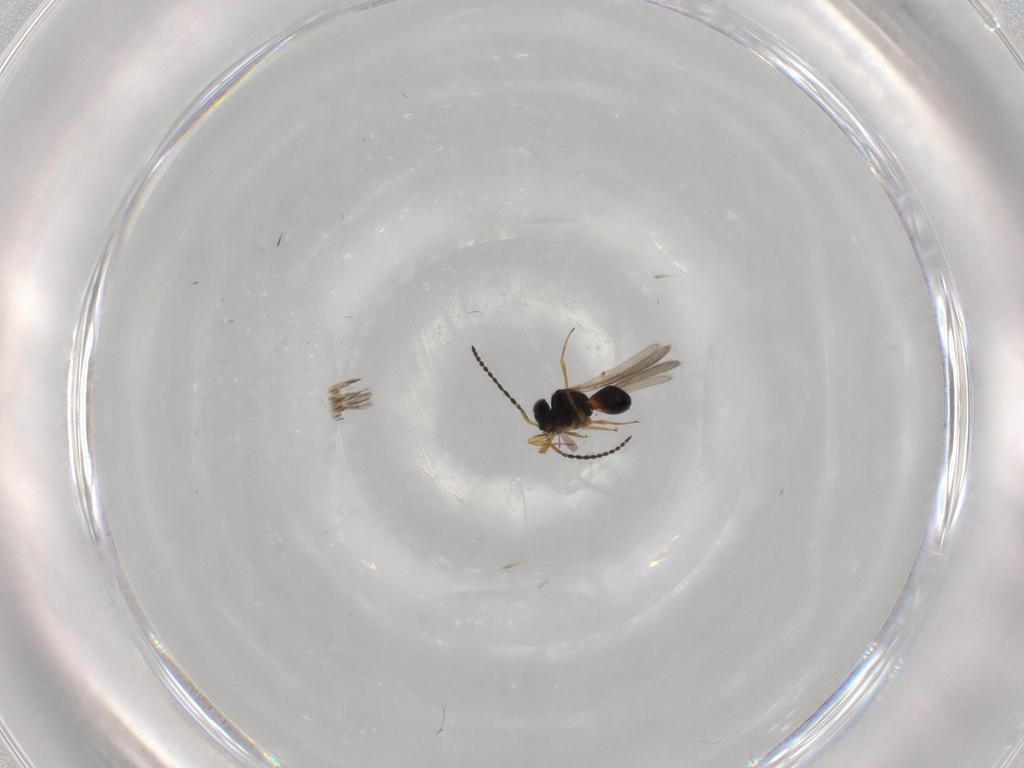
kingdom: Animalia
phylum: Arthropoda
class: Insecta
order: Hymenoptera
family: Scelionidae
